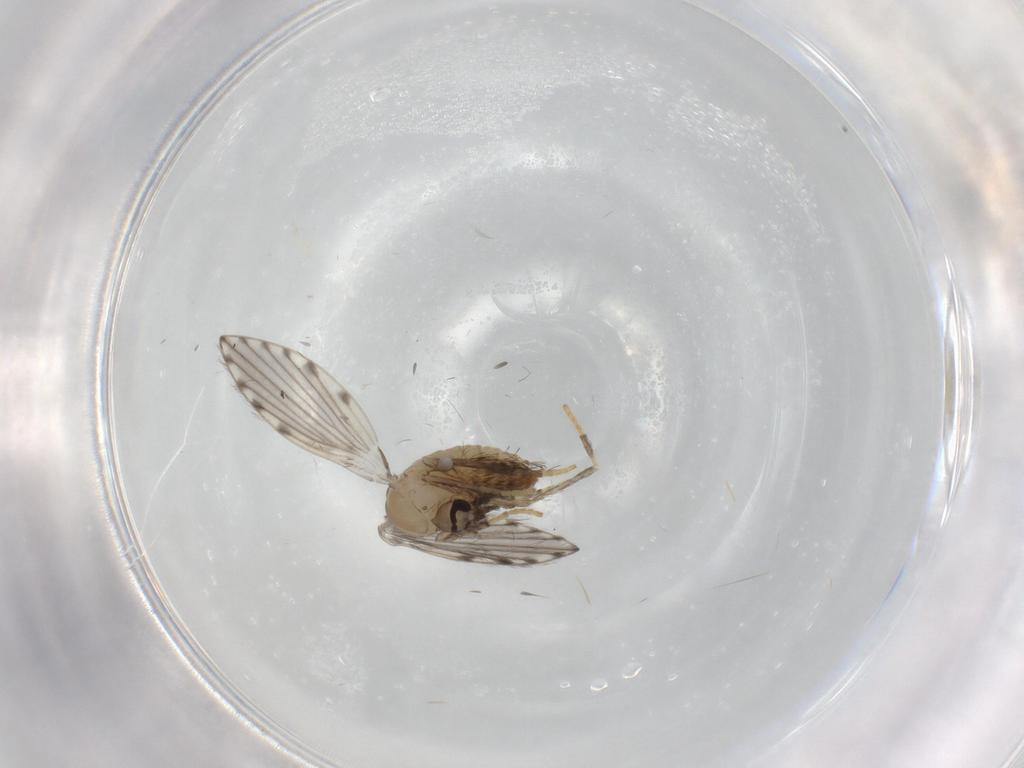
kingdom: Animalia
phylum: Arthropoda
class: Insecta
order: Diptera
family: Psychodidae
